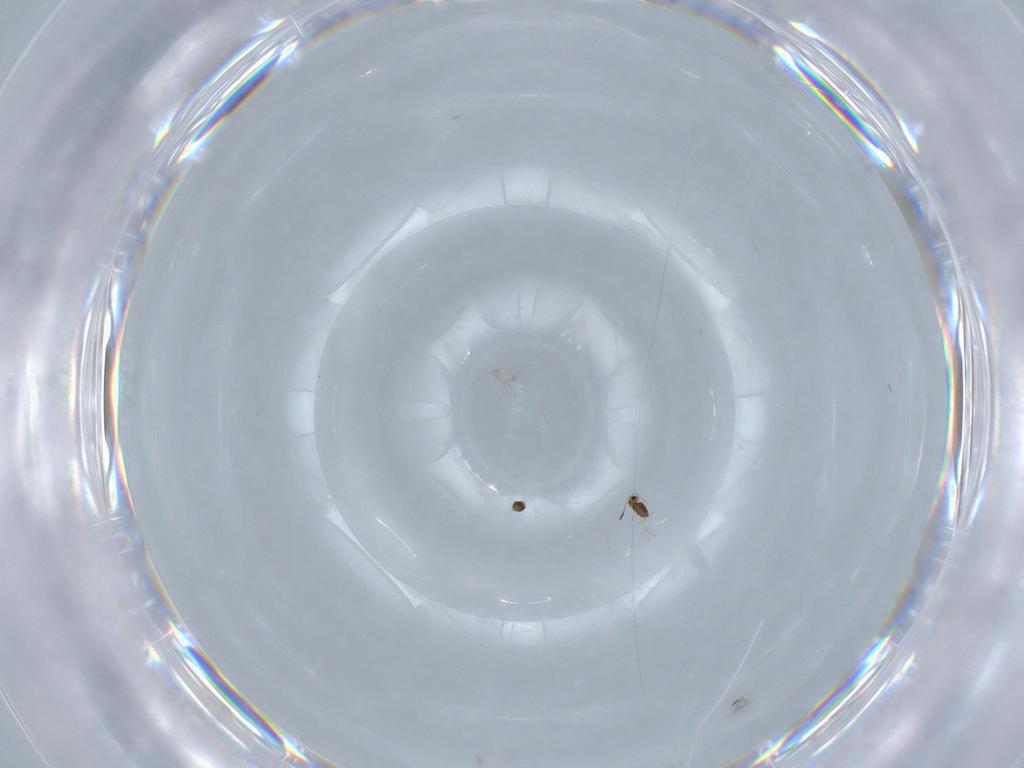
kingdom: Animalia
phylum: Arthropoda
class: Insecta
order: Hymenoptera
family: Mymarommatidae
